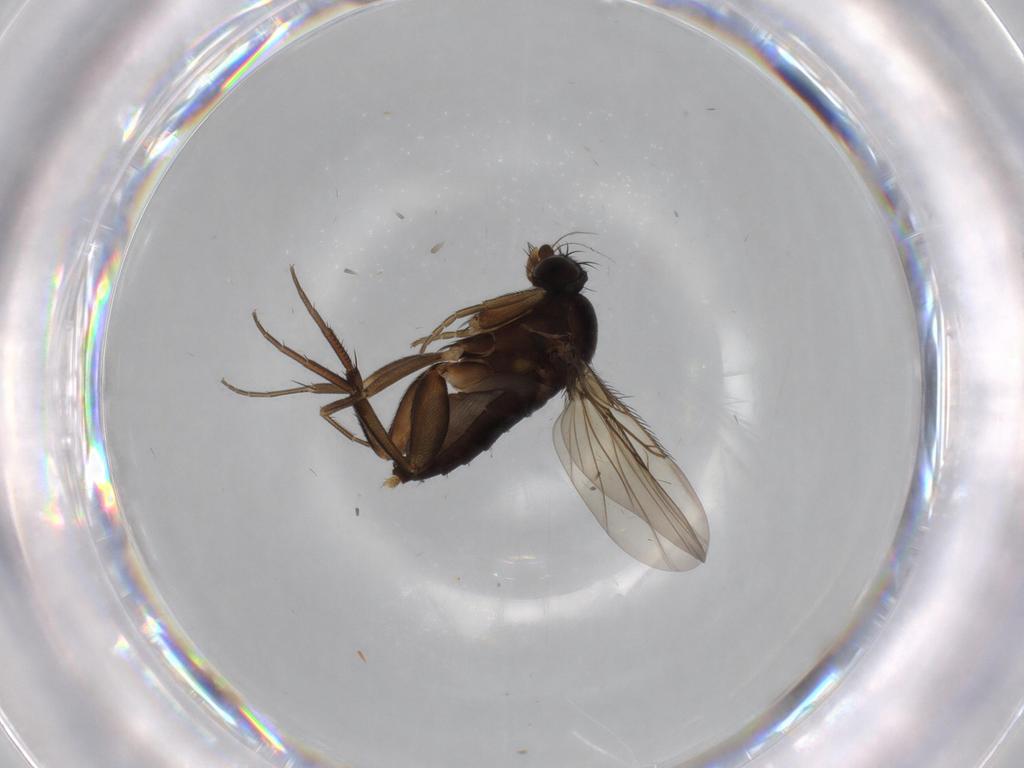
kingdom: Animalia
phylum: Arthropoda
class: Insecta
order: Diptera
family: Phoridae
